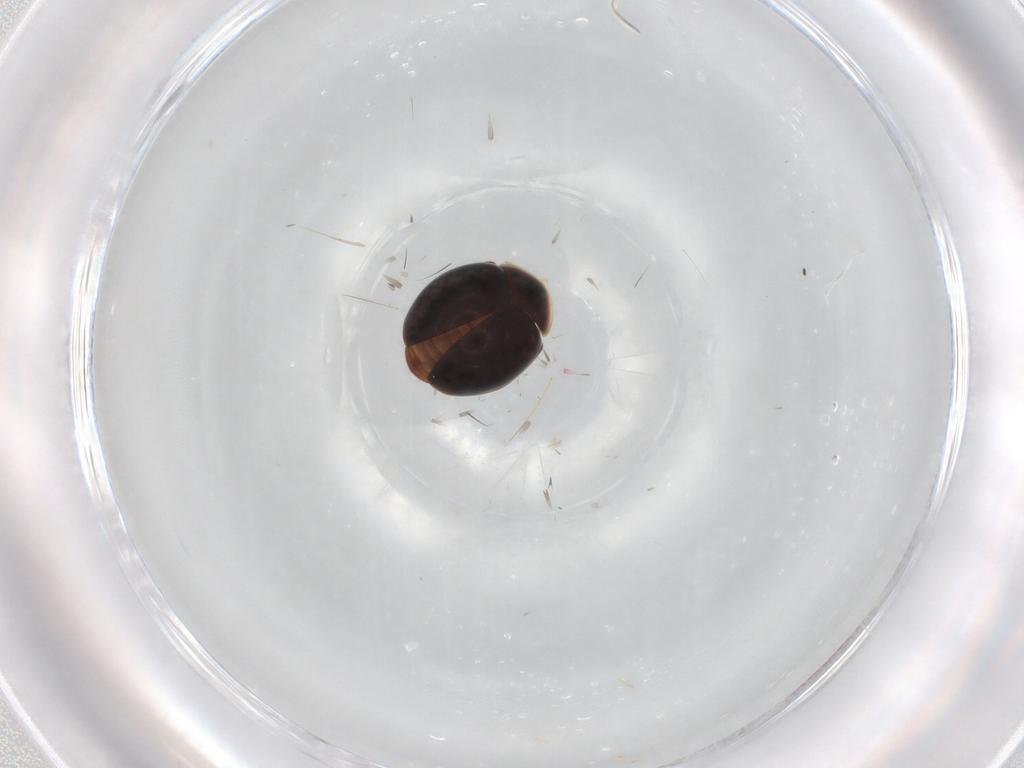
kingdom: Animalia
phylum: Arthropoda
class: Insecta
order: Coleoptera
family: Corylophidae
